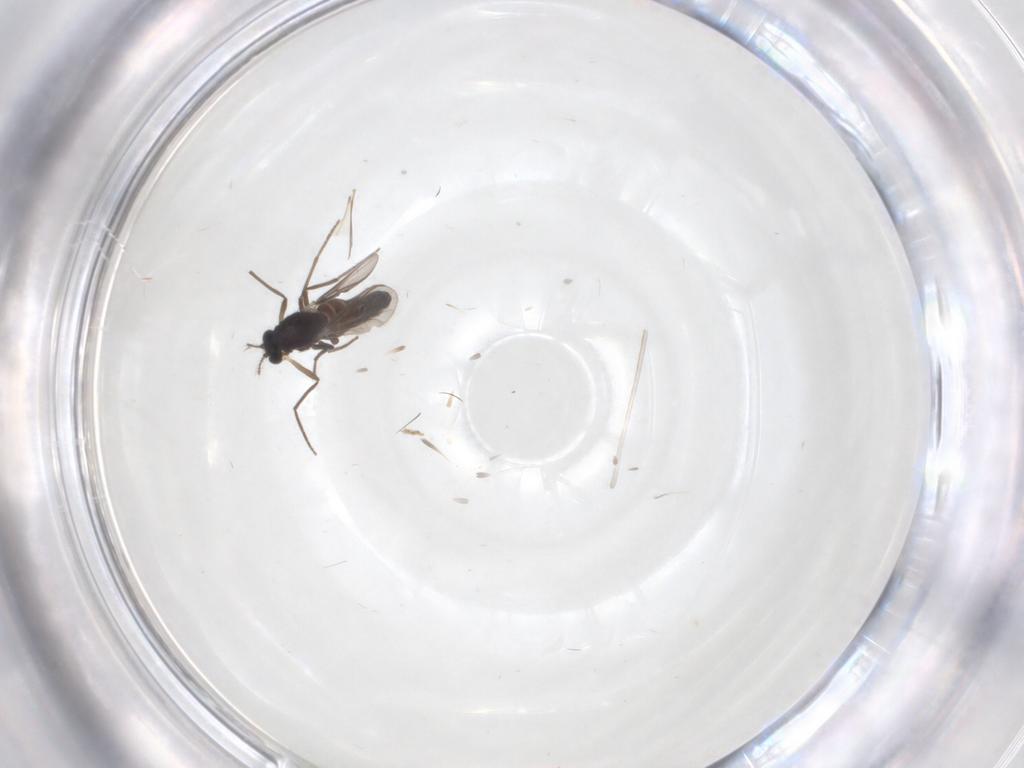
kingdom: Animalia
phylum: Arthropoda
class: Insecta
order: Diptera
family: Chironomidae
